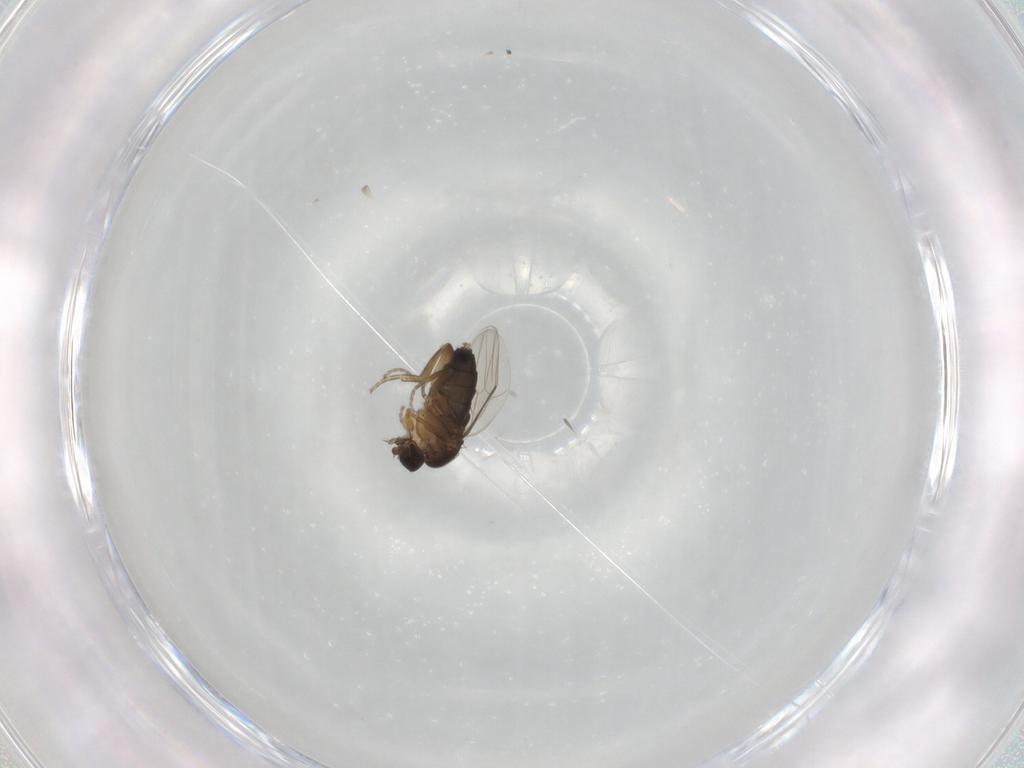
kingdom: Animalia
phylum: Arthropoda
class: Insecta
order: Diptera
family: Phoridae
